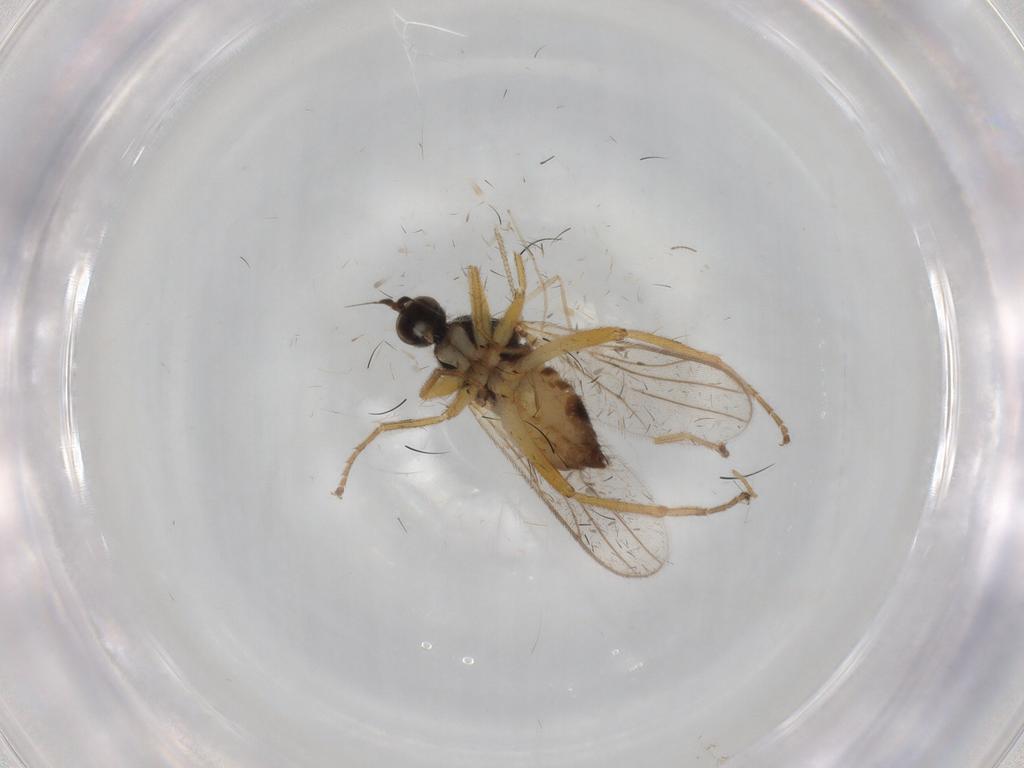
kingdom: Animalia
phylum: Arthropoda
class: Insecta
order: Diptera
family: Hybotidae
